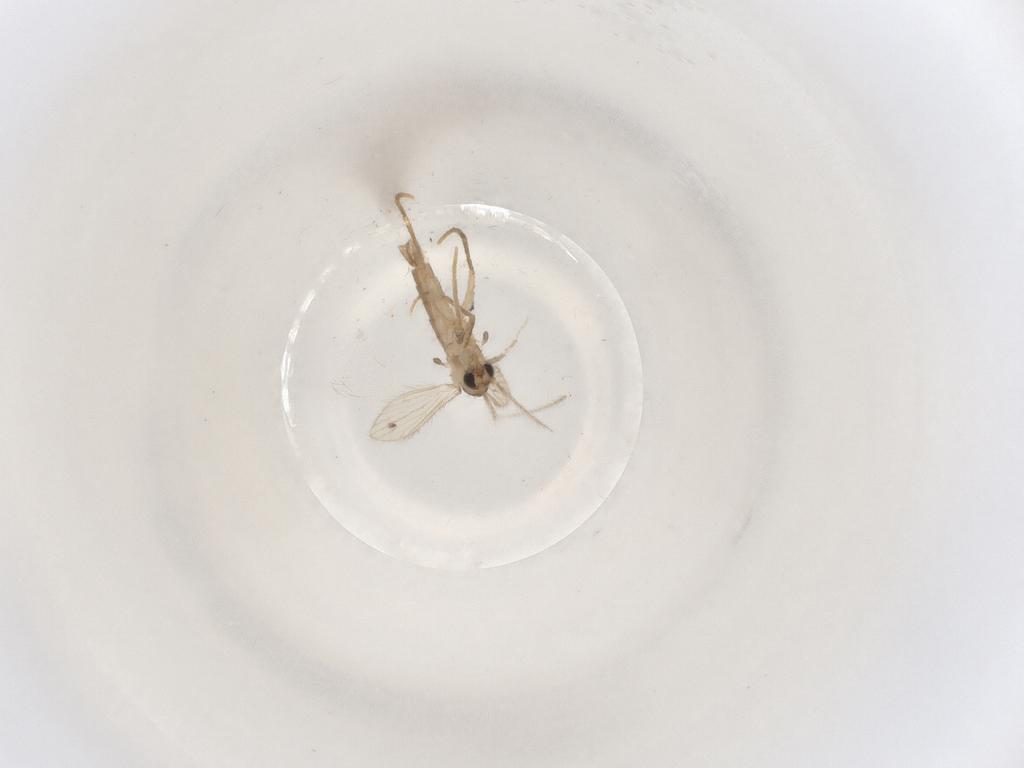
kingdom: Animalia
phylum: Arthropoda
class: Insecta
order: Diptera
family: Psychodidae
